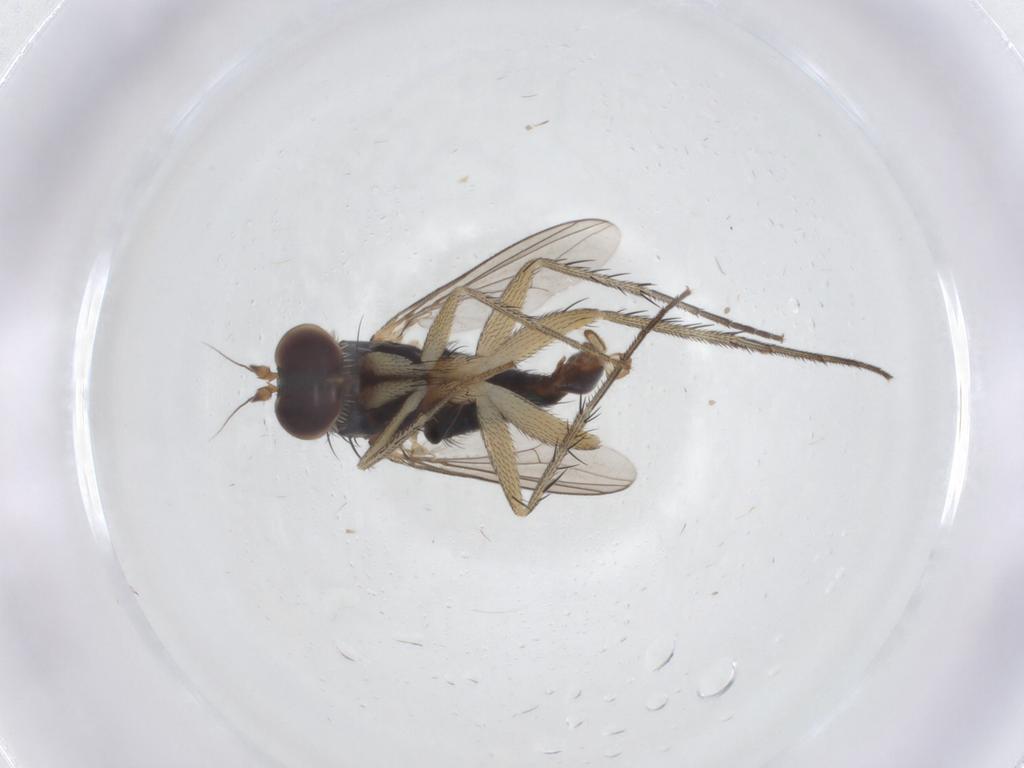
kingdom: Animalia
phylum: Arthropoda
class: Insecta
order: Diptera
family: Dolichopodidae
